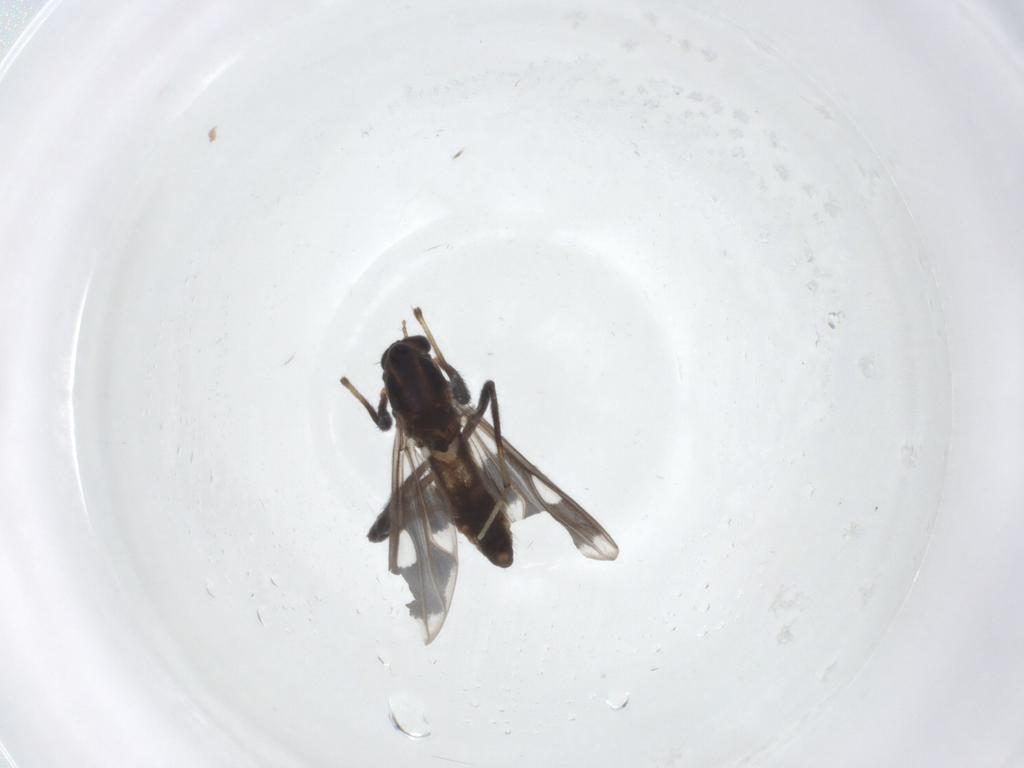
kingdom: Animalia
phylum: Arthropoda
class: Insecta
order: Diptera
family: Chironomidae
